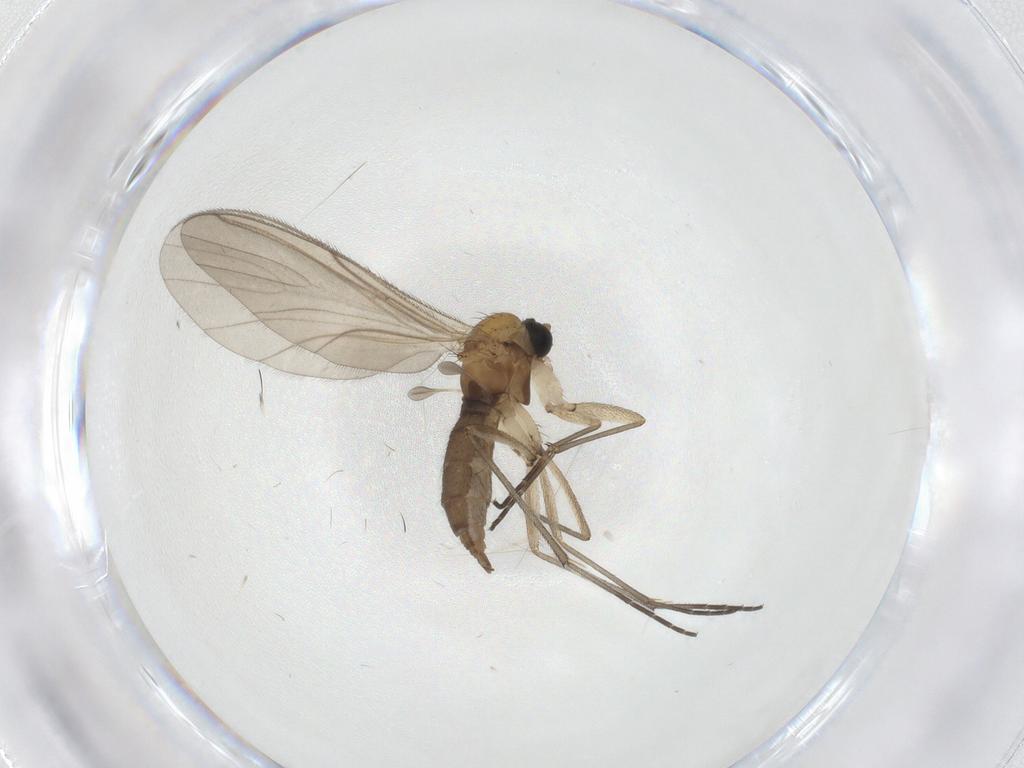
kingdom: Animalia
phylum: Arthropoda
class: Insecta
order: Diptera
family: Sciaridae
